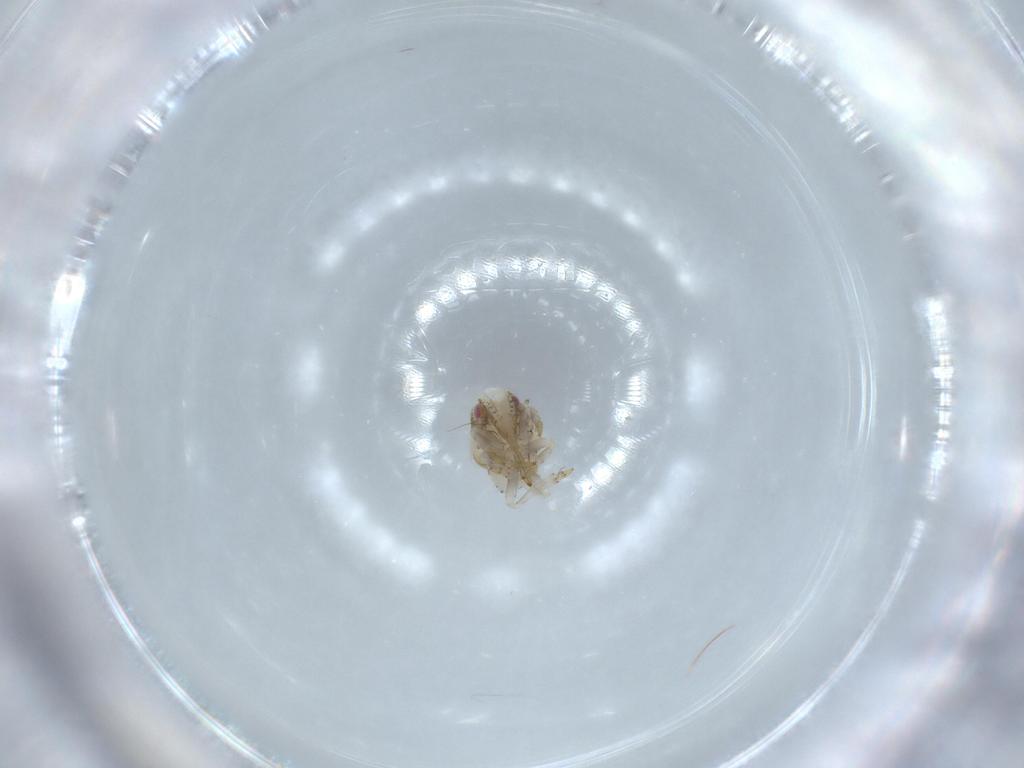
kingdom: Animalia
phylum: Arthropoda
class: Insecta
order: Hemiptera
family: Acanaloniidae
